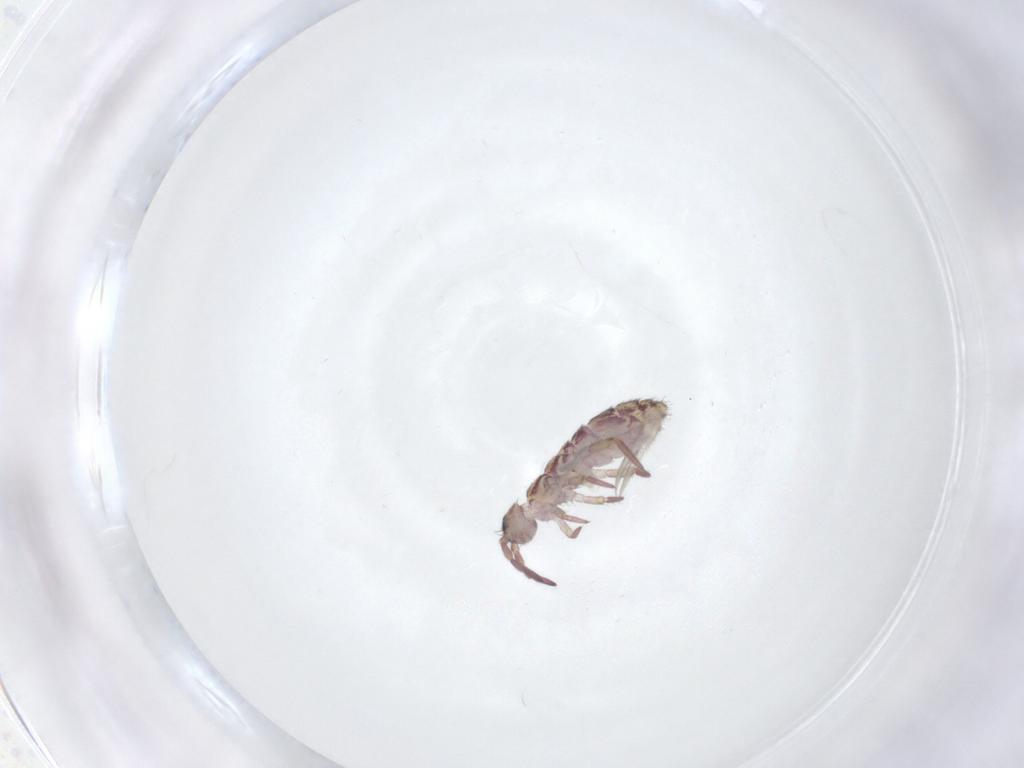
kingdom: Animalia
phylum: Arthropoda
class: Collembola
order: Entomobryomorpha
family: Isotomidae
